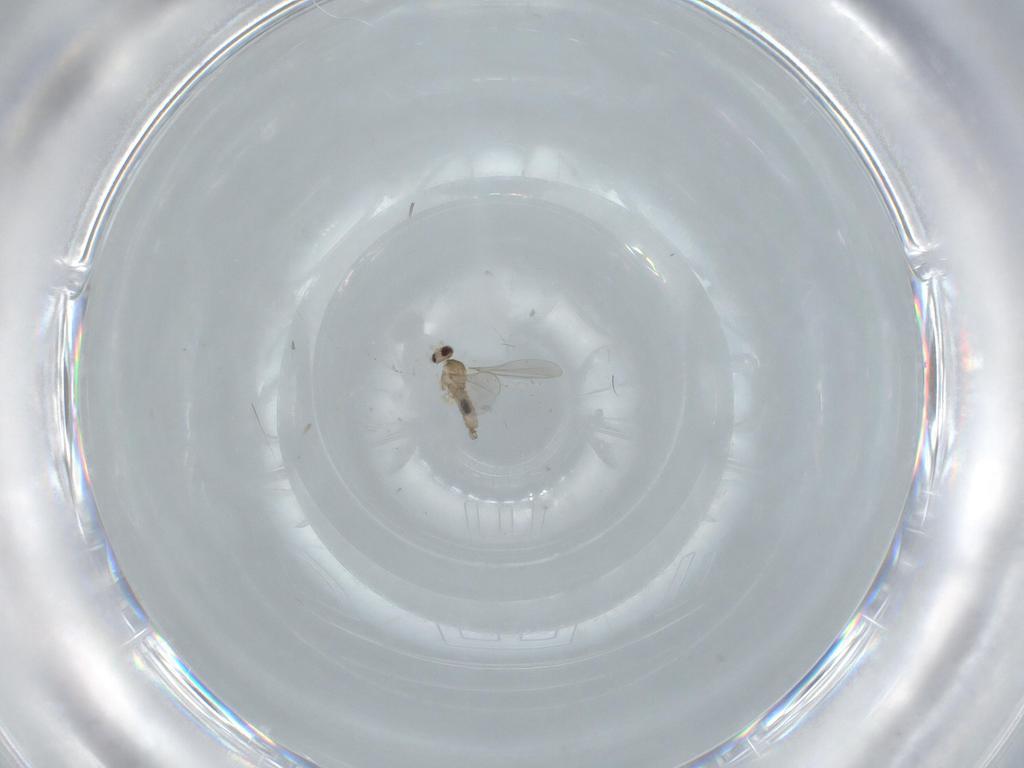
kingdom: Animalia
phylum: Arthropoda
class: Insecta
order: Diptera
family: Cecidomyiidae
